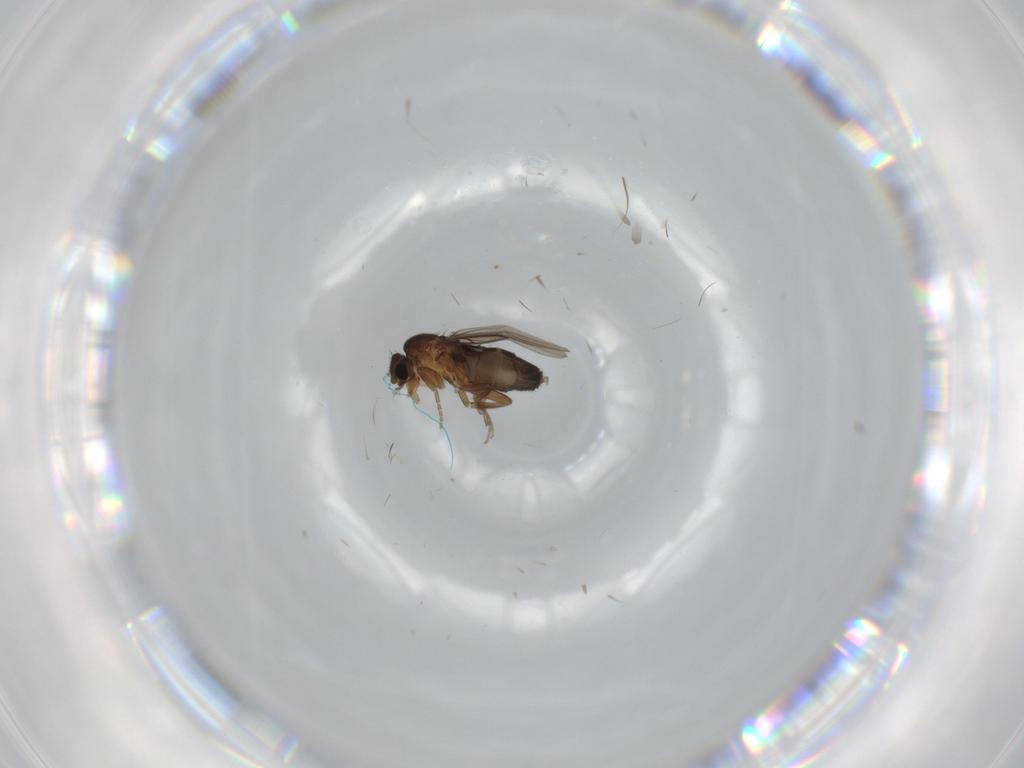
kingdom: Animalia
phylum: Arthropoda
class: Insecta
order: Diptera
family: Phoridae
